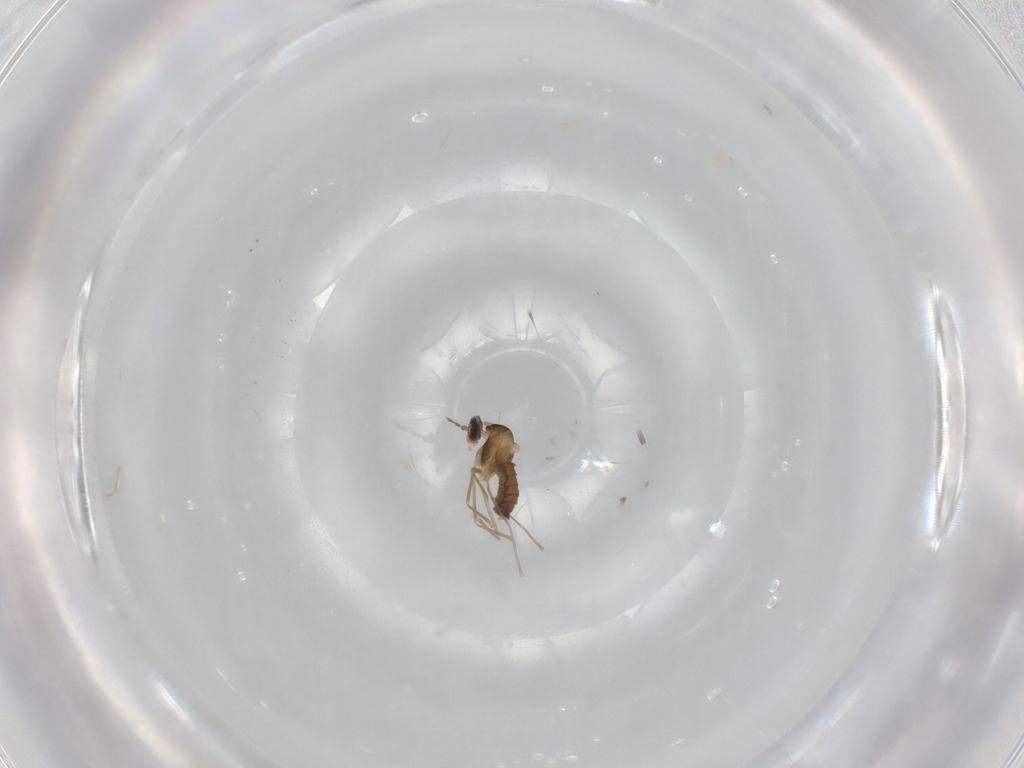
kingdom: Animalia
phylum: Arthropoda
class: Insecta
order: Diptera
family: Cecidomyiidae
